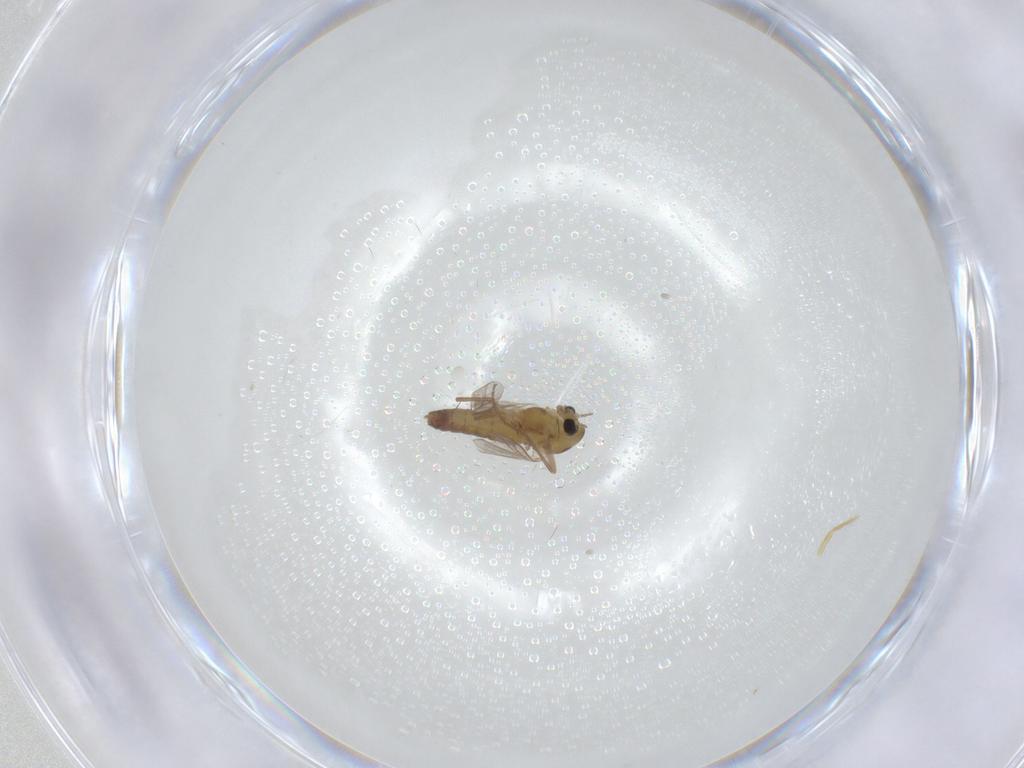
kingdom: Animalia
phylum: Arthropoda
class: Insecta
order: Diptera
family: Chironomidae
